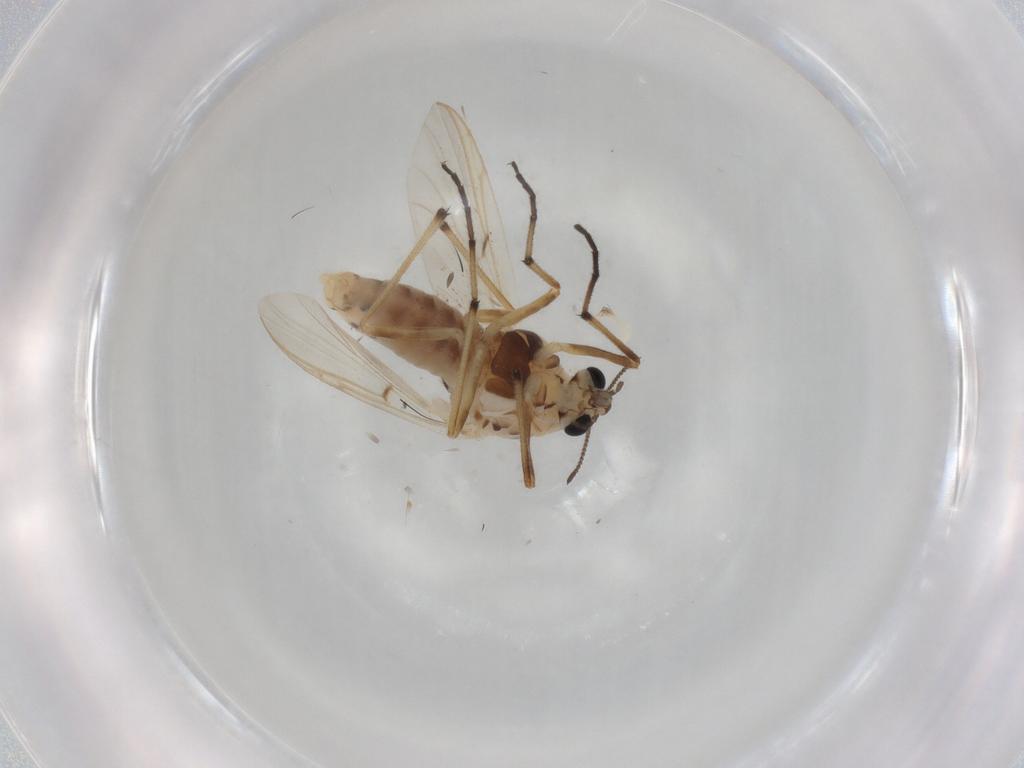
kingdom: Animalia
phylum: Arthropoda
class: Insecta
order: Diptera
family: Chironomidae
